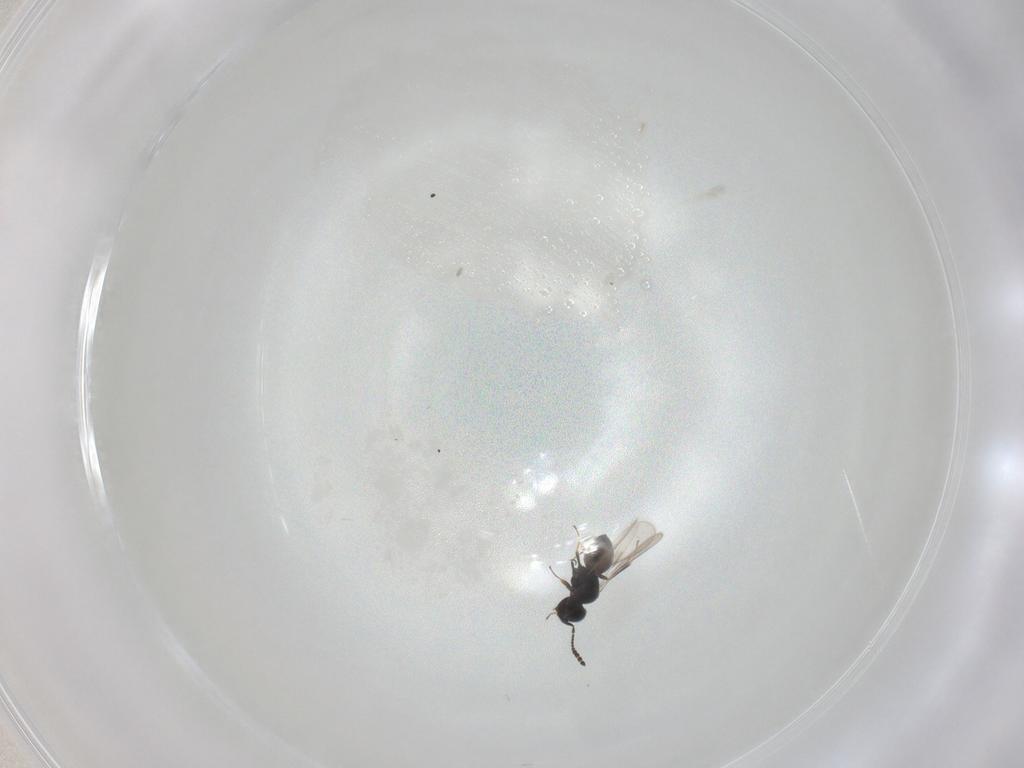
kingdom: Animalia
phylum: Arthropoda
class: Insecta
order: Hymenoptera
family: Scelionidae
